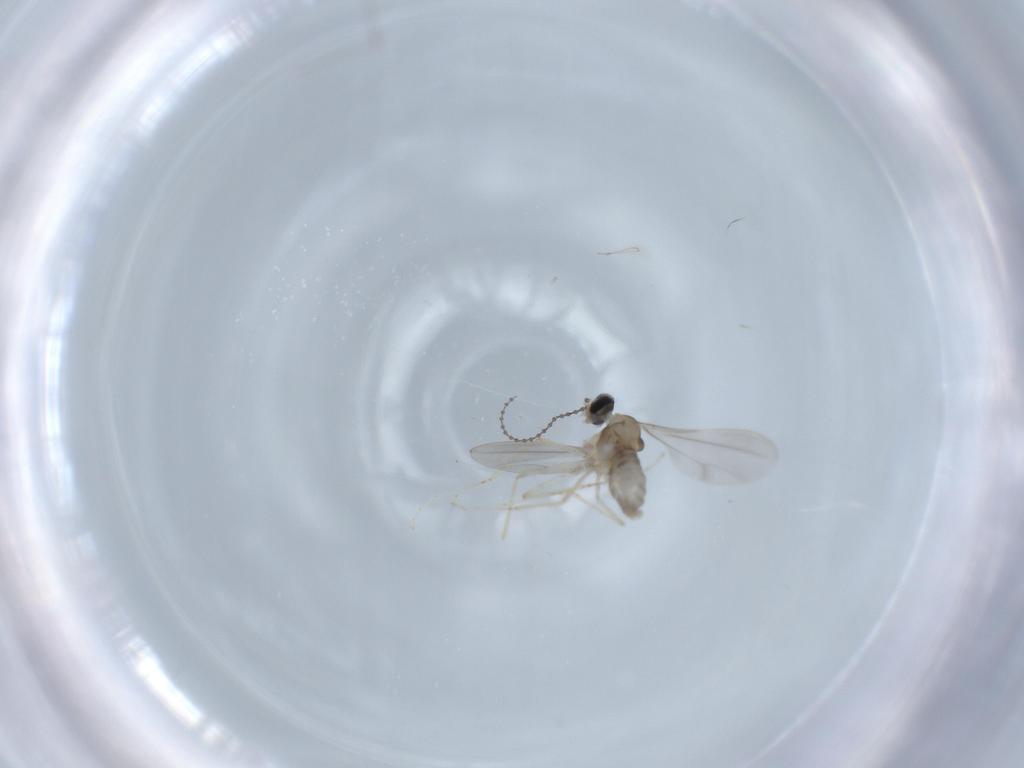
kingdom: Animalia
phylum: Arthropoda
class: Insecta
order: Diptera
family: Cecidomyiidae
